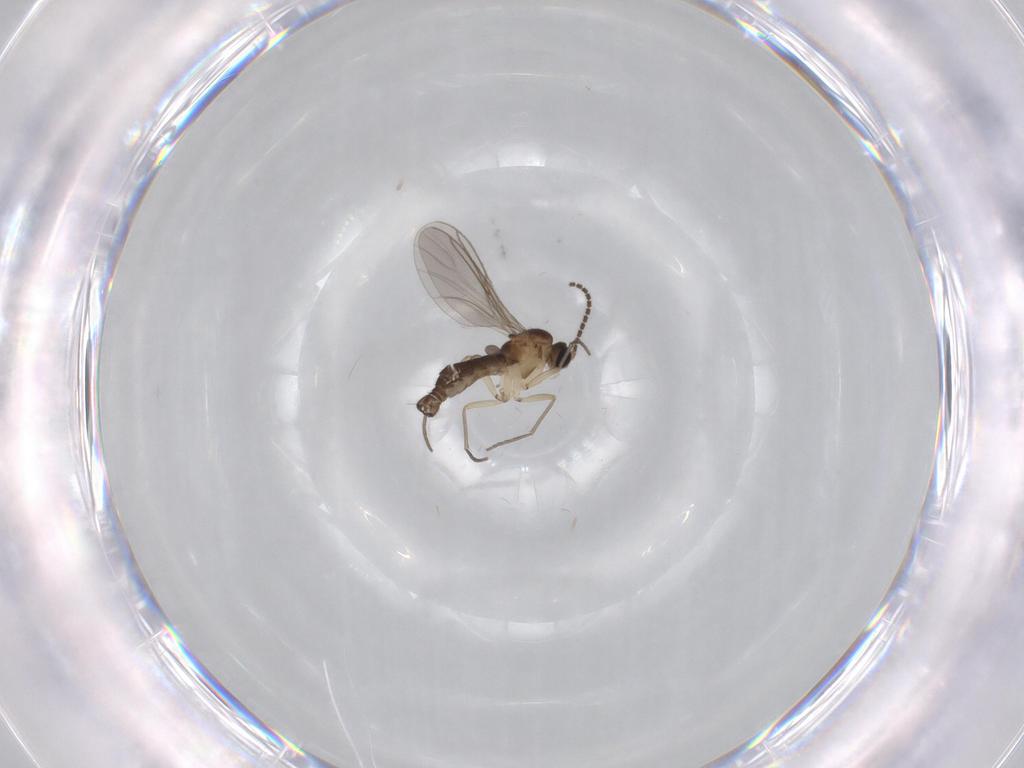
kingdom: Animalia
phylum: Arthropoda
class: Insecta
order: Diptera
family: Sciaridae
